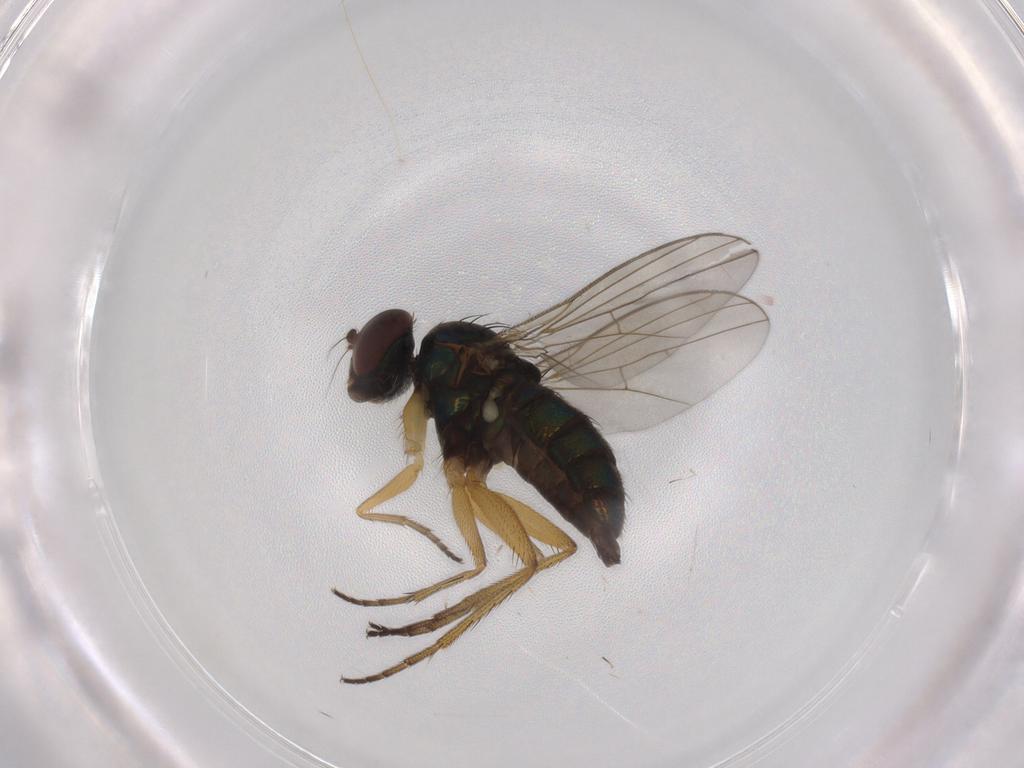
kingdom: Animalia
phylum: Arthropoda
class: Insecta
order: Diptera
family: Dolichopodidae
